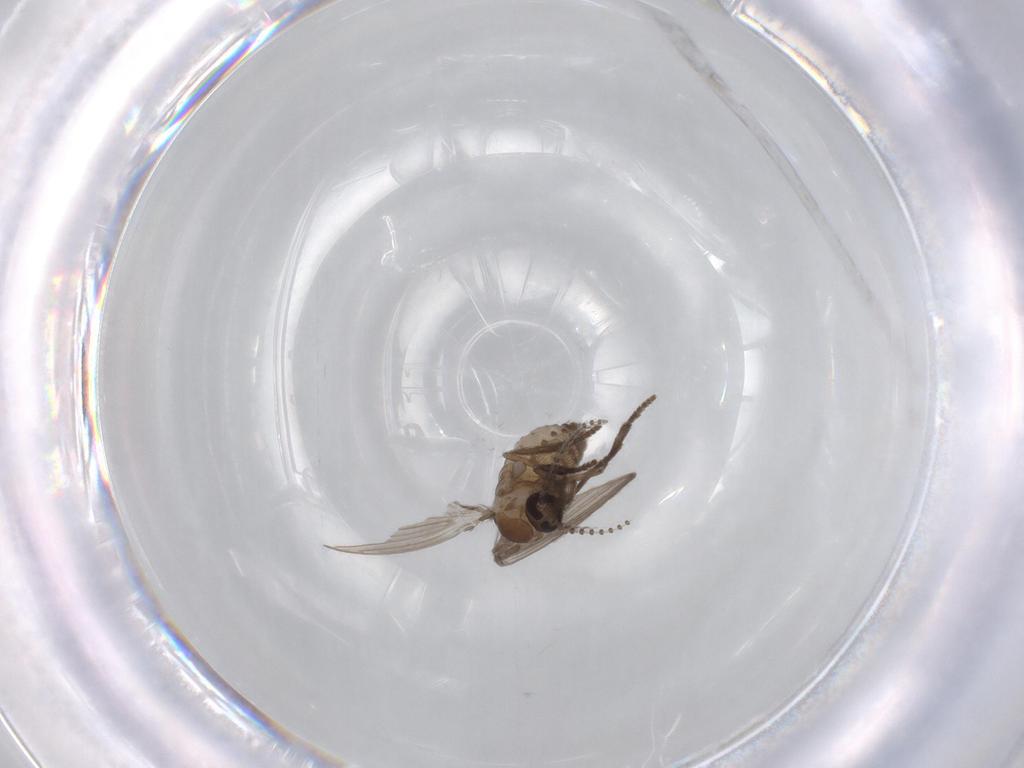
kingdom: Animalia
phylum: Arthropoda
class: Insecta
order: Diptera
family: Psychodidae
